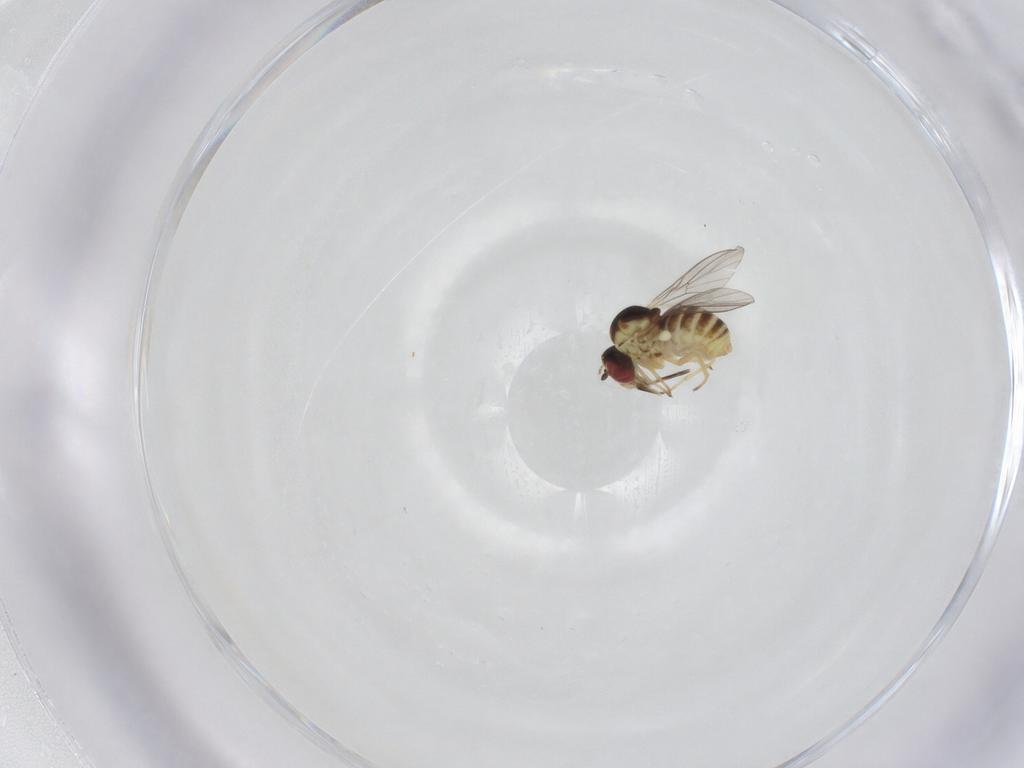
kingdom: Animalia
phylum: Arthropoda
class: Insecta
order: Diptera
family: Mythicomyiidae
